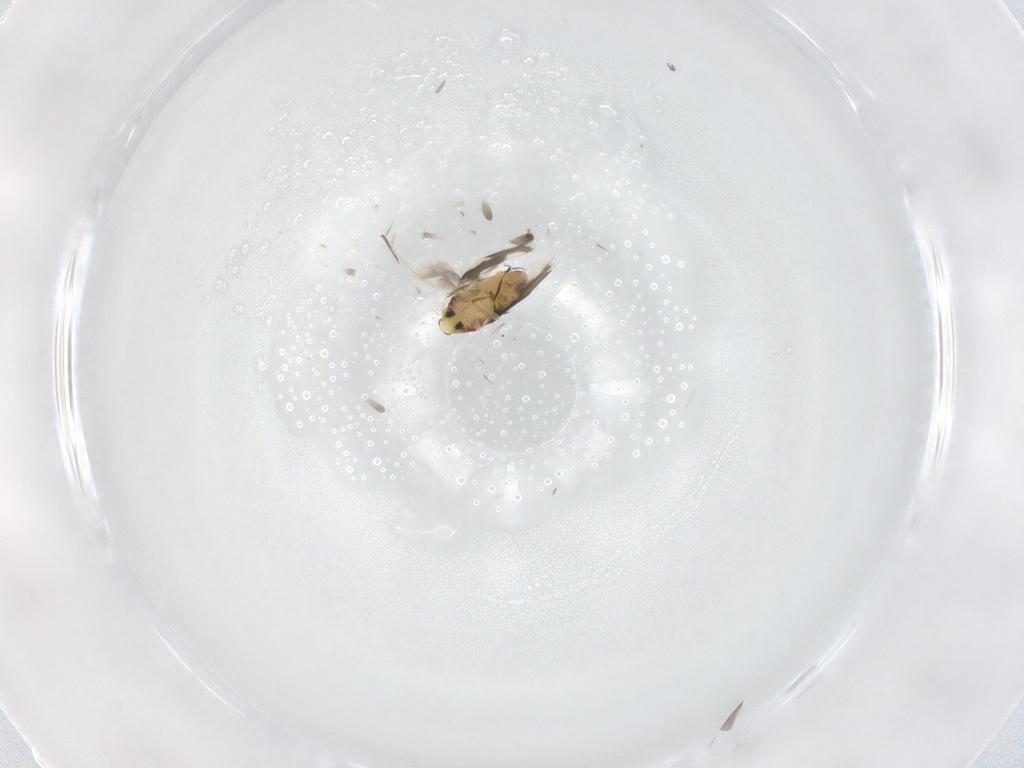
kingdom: Animalia
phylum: Arthropoda
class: Insecta
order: Hemiptera
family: Aleyrodidae
